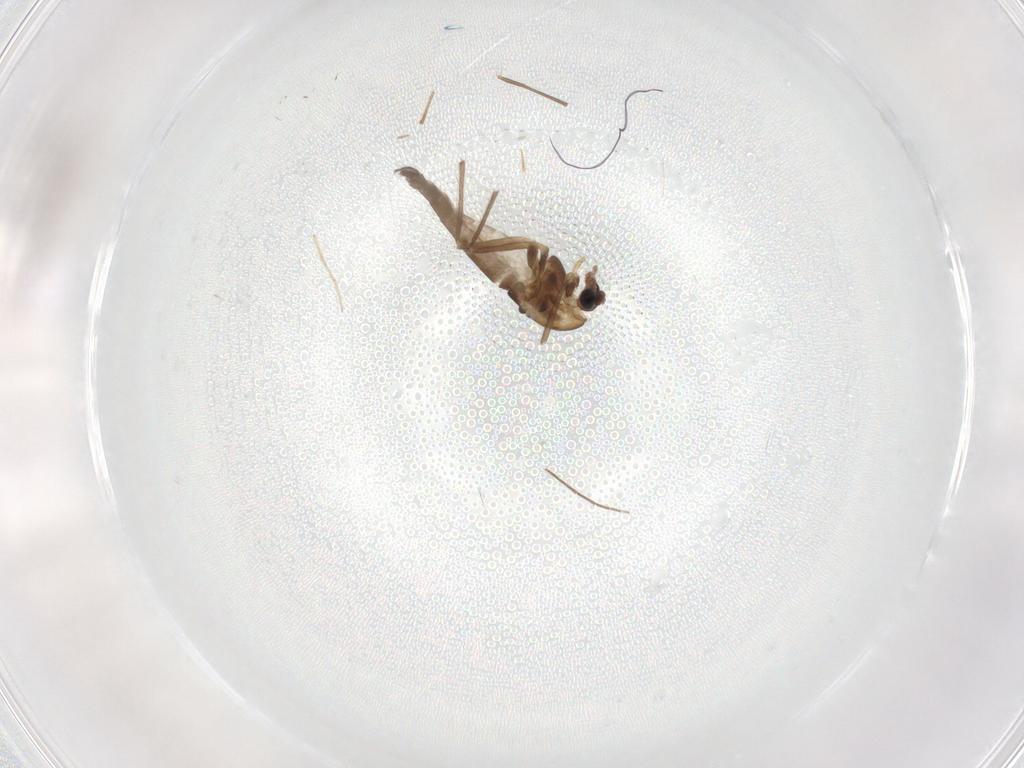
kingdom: Animalia
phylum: Arthropoda
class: Insecta
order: Diptera
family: Chironomidae
